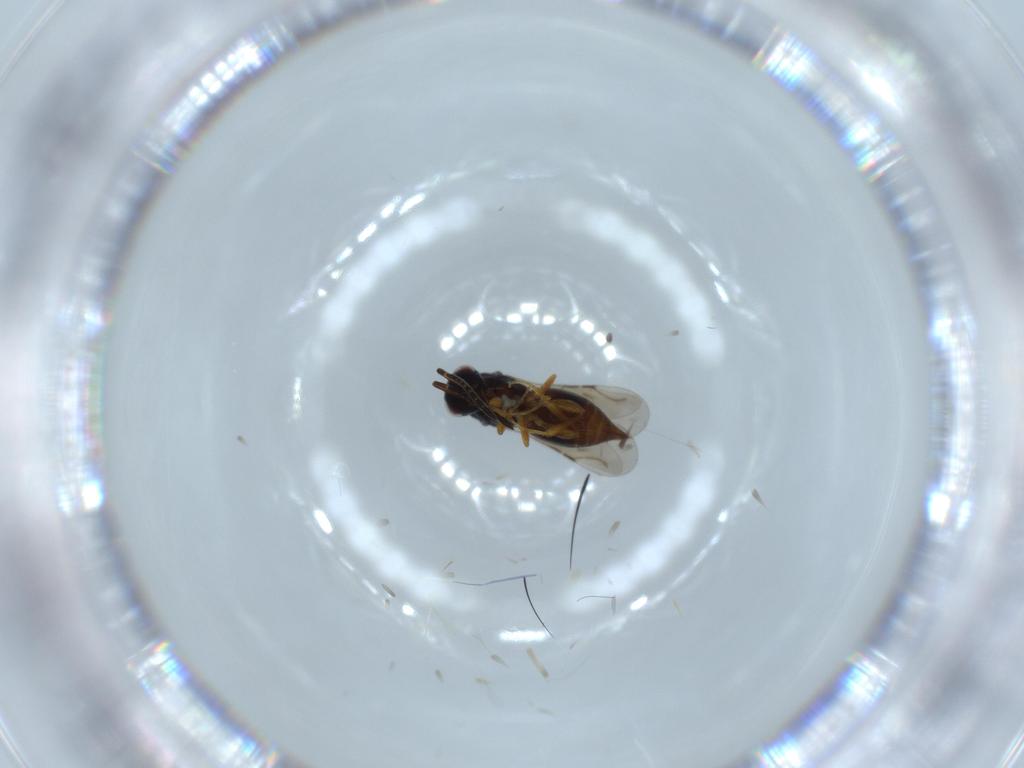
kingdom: Animalia
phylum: Arthropoda
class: Insecta
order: Hymenoptera
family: Ceraphronidae
